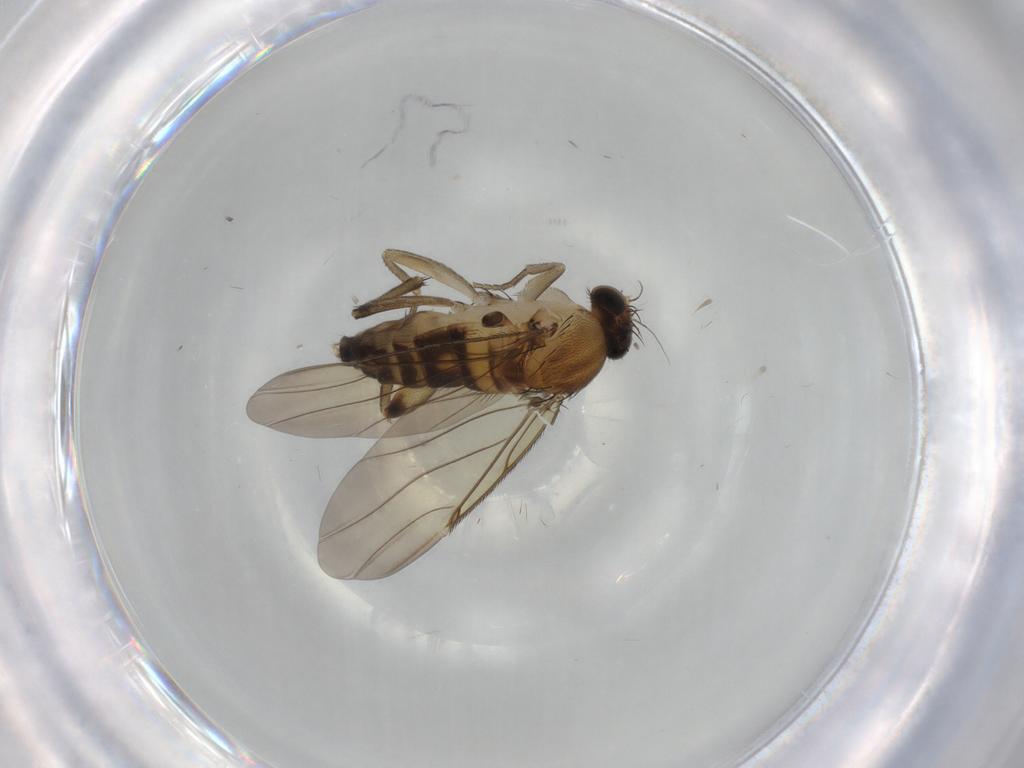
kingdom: Animalia
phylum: Arthropoda
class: Insecta
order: Diptera
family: Phoridae
